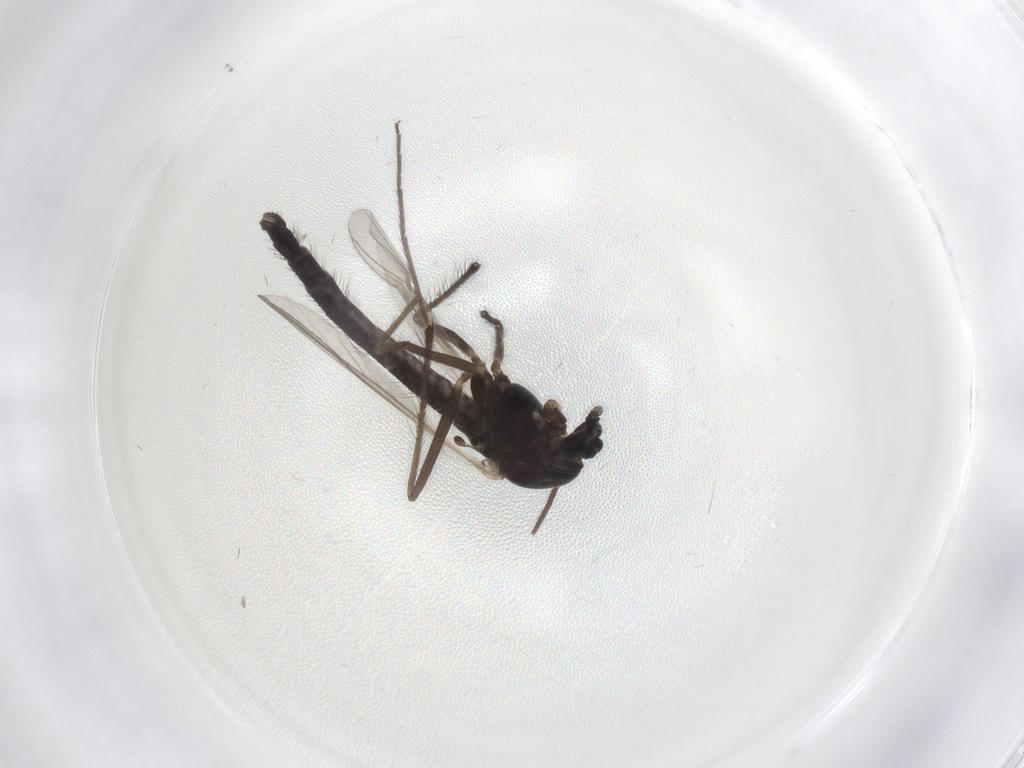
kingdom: Animalia
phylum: Arthropoda
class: Insecta
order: Diptera
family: Chironomidae
